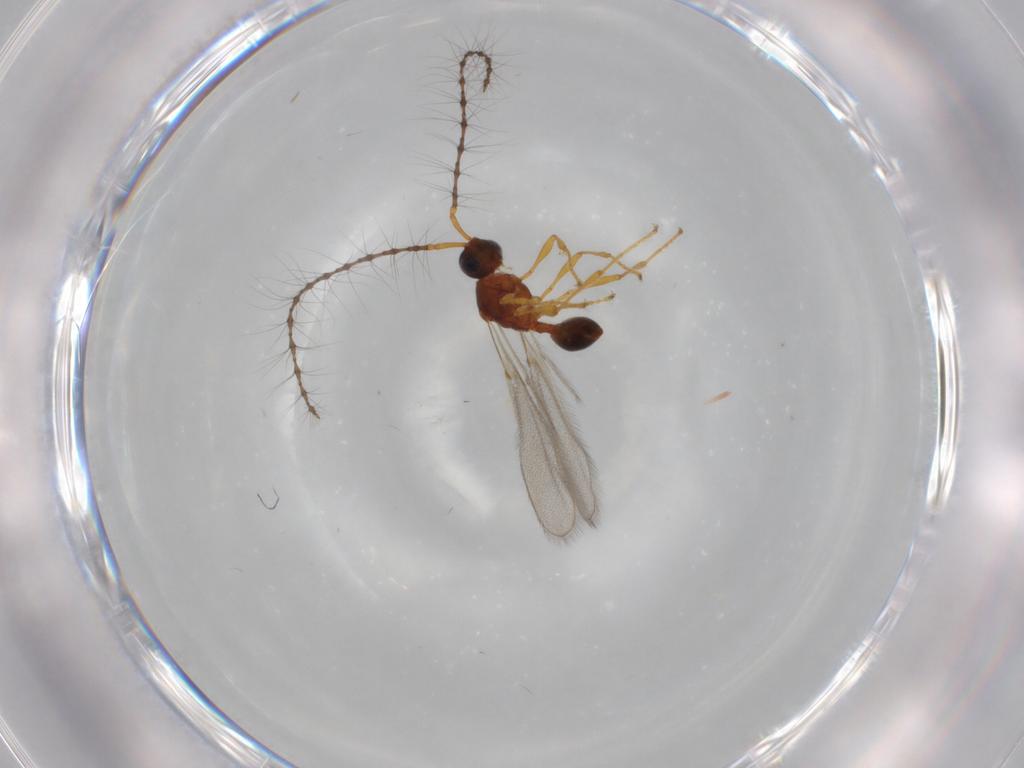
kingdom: Animalia
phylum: Arthropoda
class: Insecta
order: Hymenoptera
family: Diapriidae
